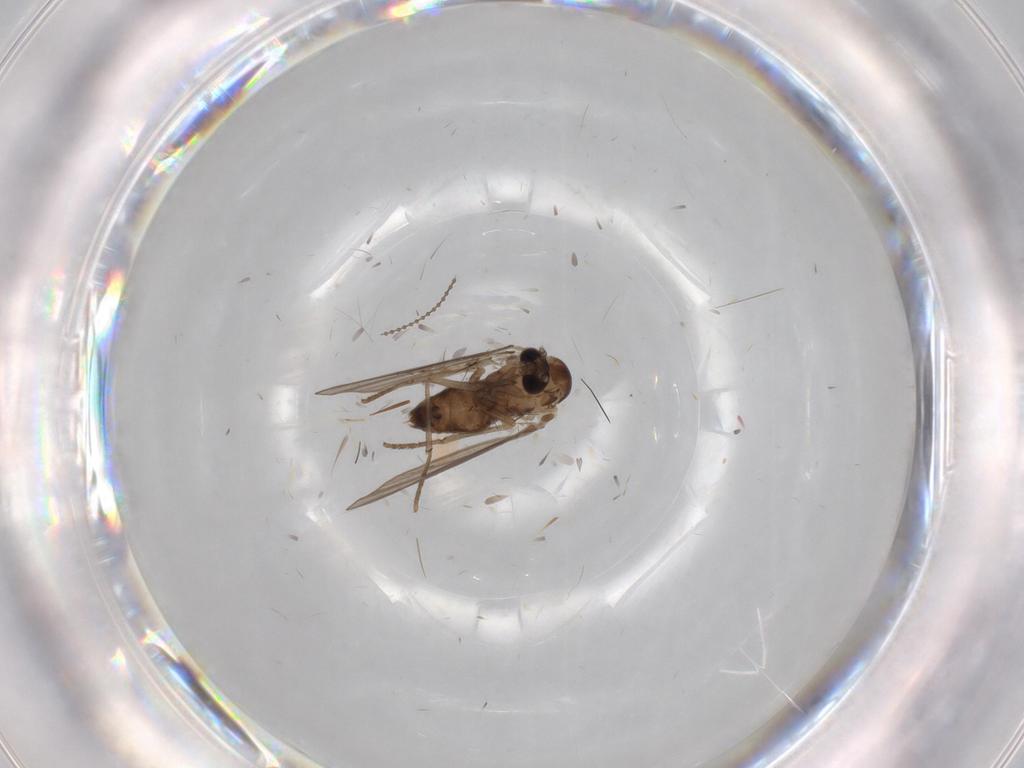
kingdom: Animalia
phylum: Arthropoda
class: Insecta
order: Diptera
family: Psychodidae
